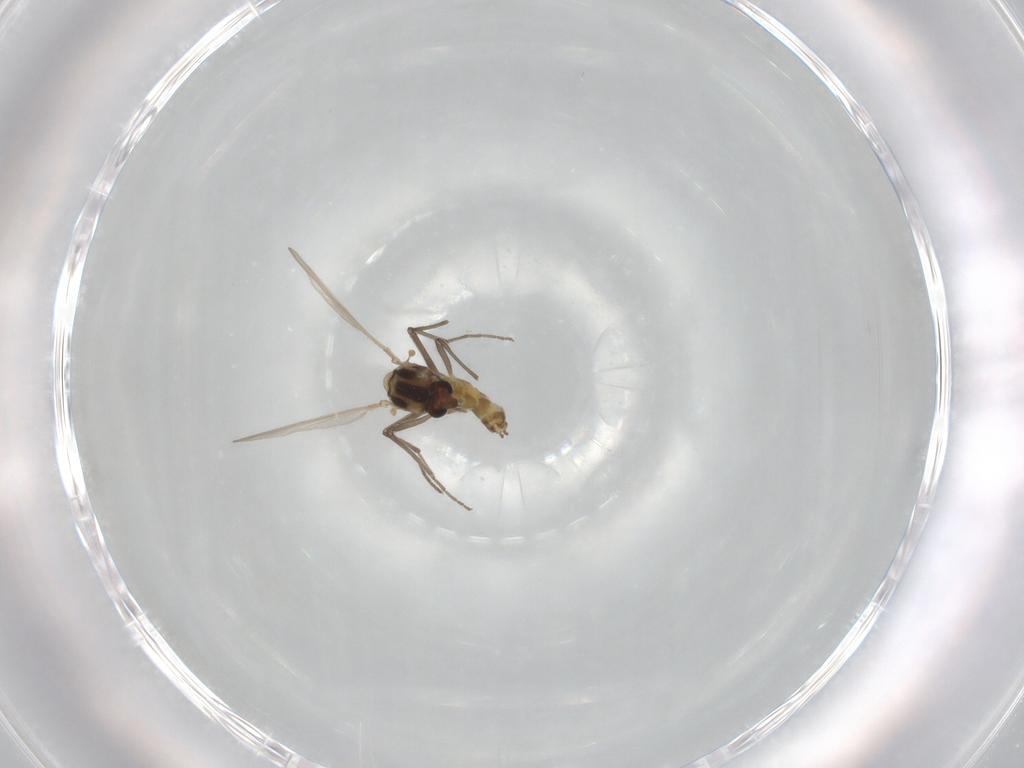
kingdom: Animalia
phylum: Arthropoda
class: Insecta
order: Diptera
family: Chironomidae
